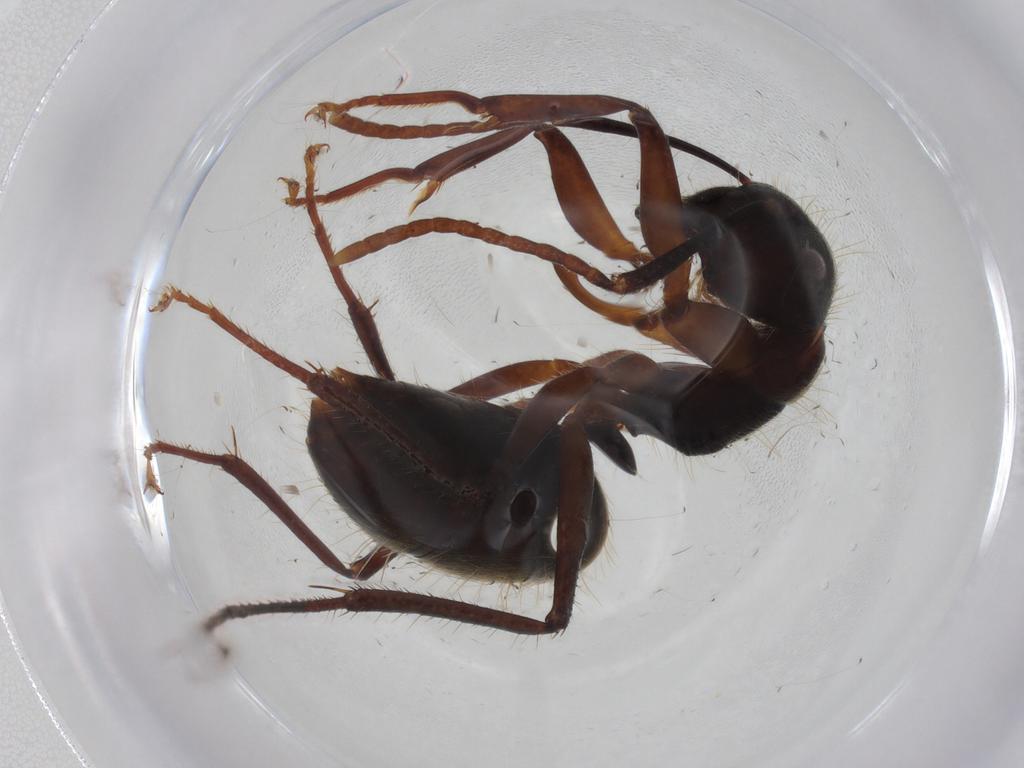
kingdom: Animalia
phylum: Arthropoda
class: Insecta
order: Hymenoptera
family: Formicidae
